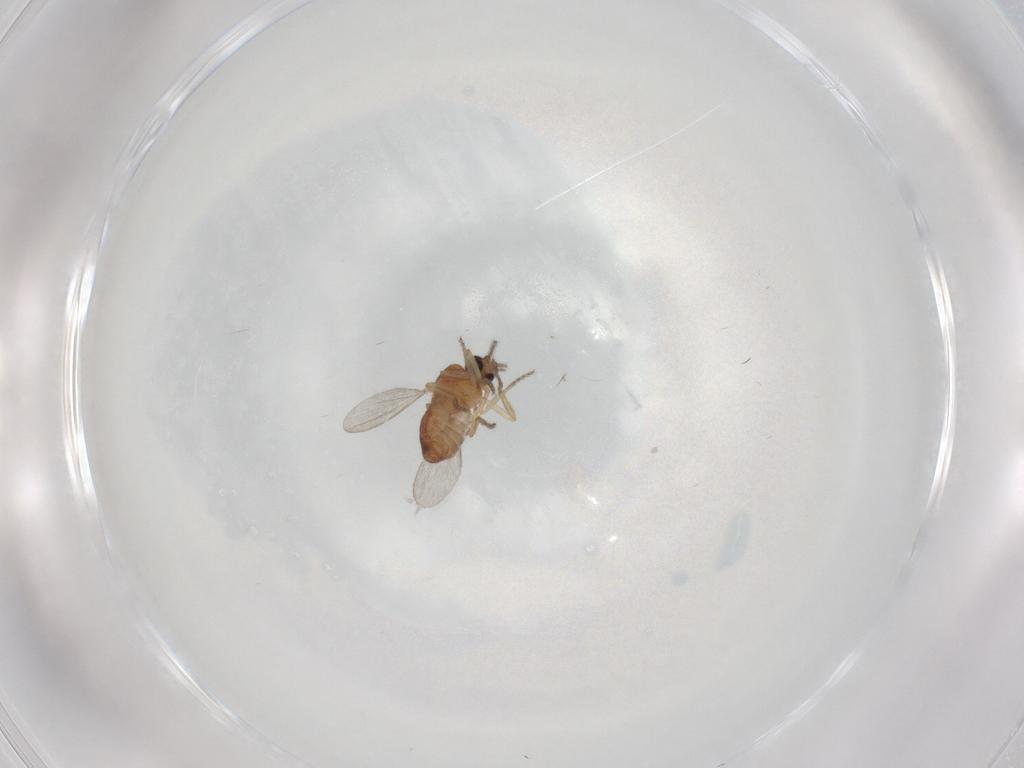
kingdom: Animalia
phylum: Arthropoda
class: Insecta
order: Diptera
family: Ceratopogonidae
